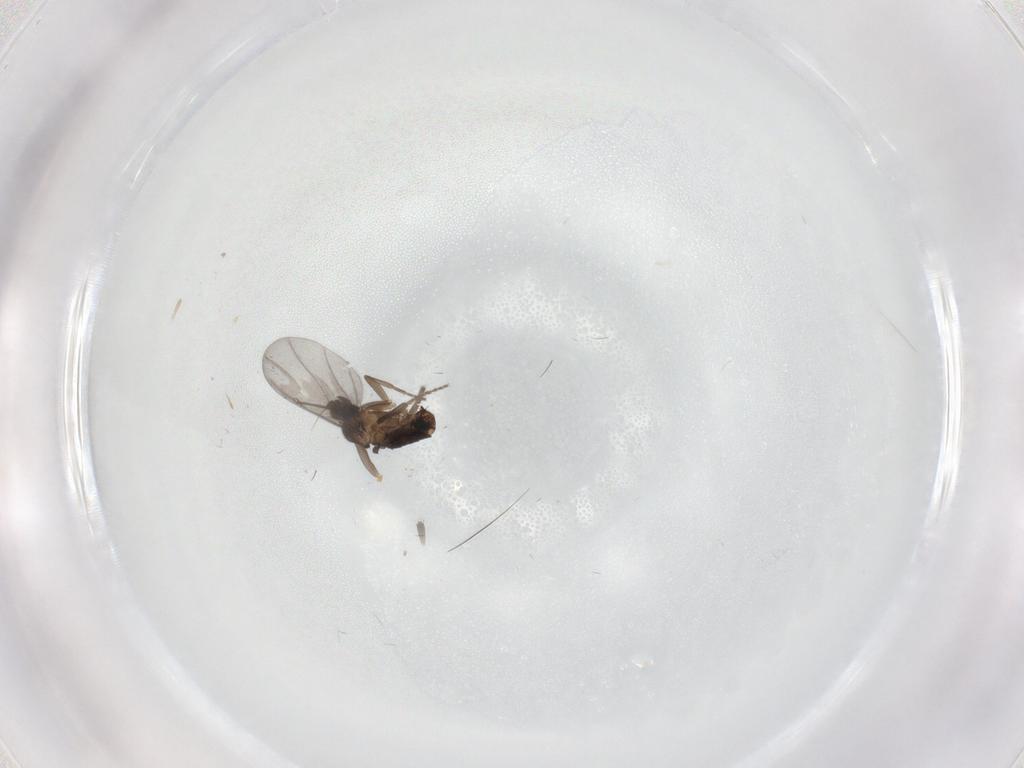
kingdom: Animalia
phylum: Arthropoda
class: Insecta
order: Diptera
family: Phoridae
